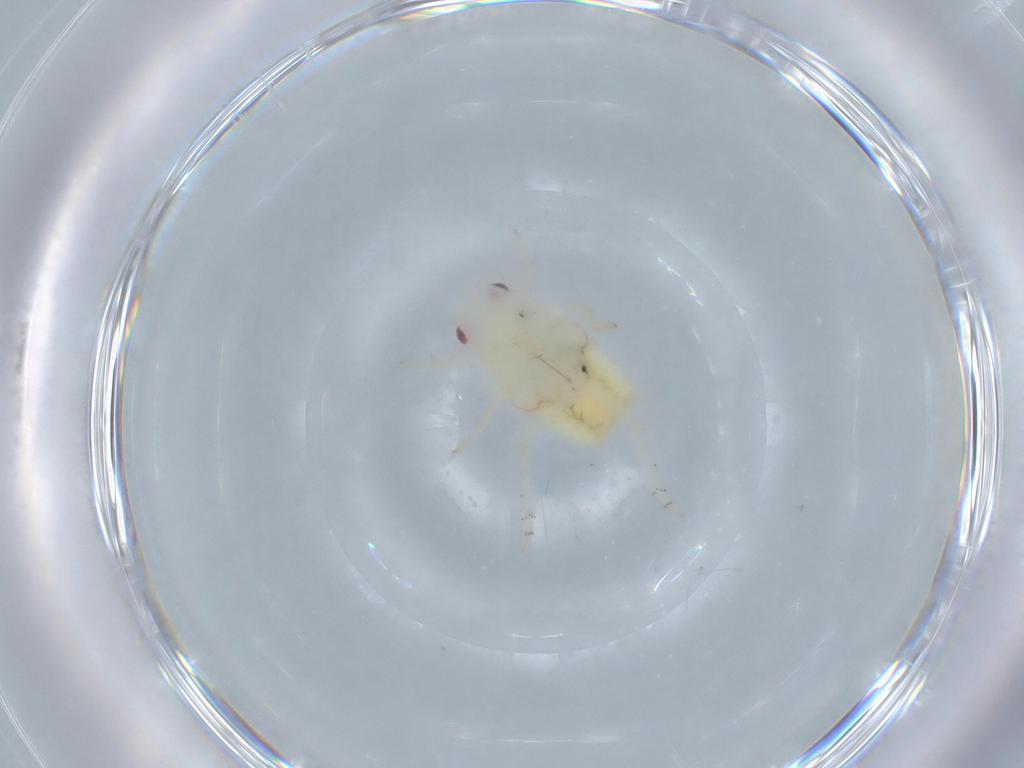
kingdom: Animalia
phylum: Arthropoda
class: Insecta
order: Hemiptera
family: Flatidae
